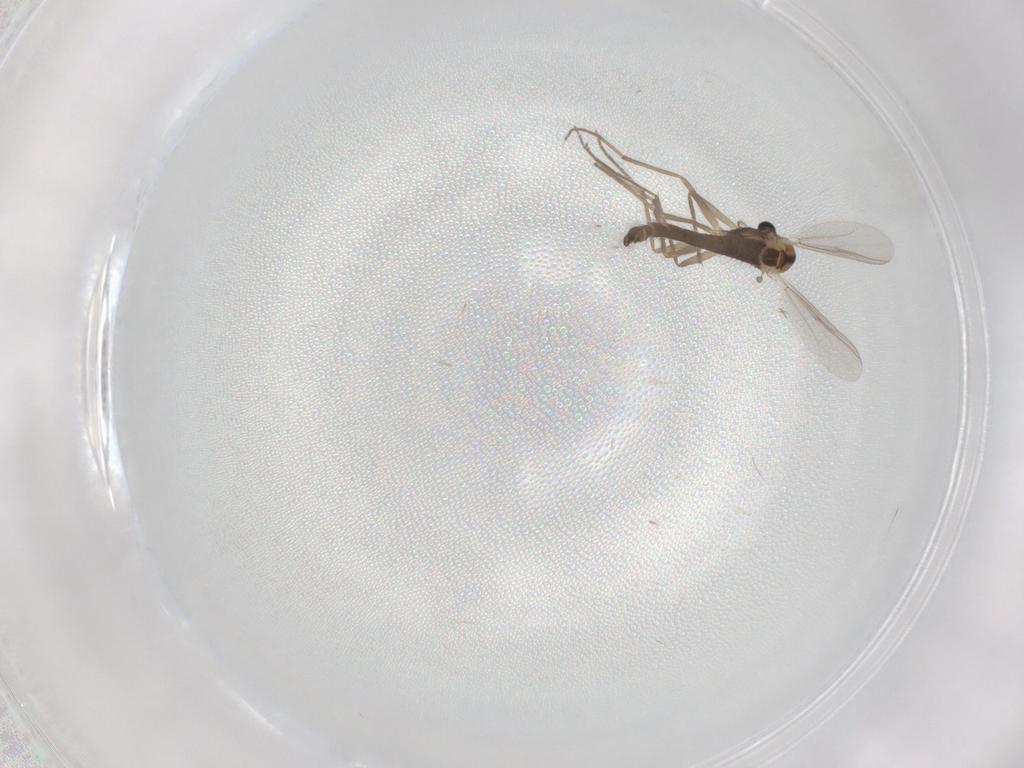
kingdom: Animalia
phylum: Arthropoda
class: Insecta
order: Diptera
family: Chironomidae
